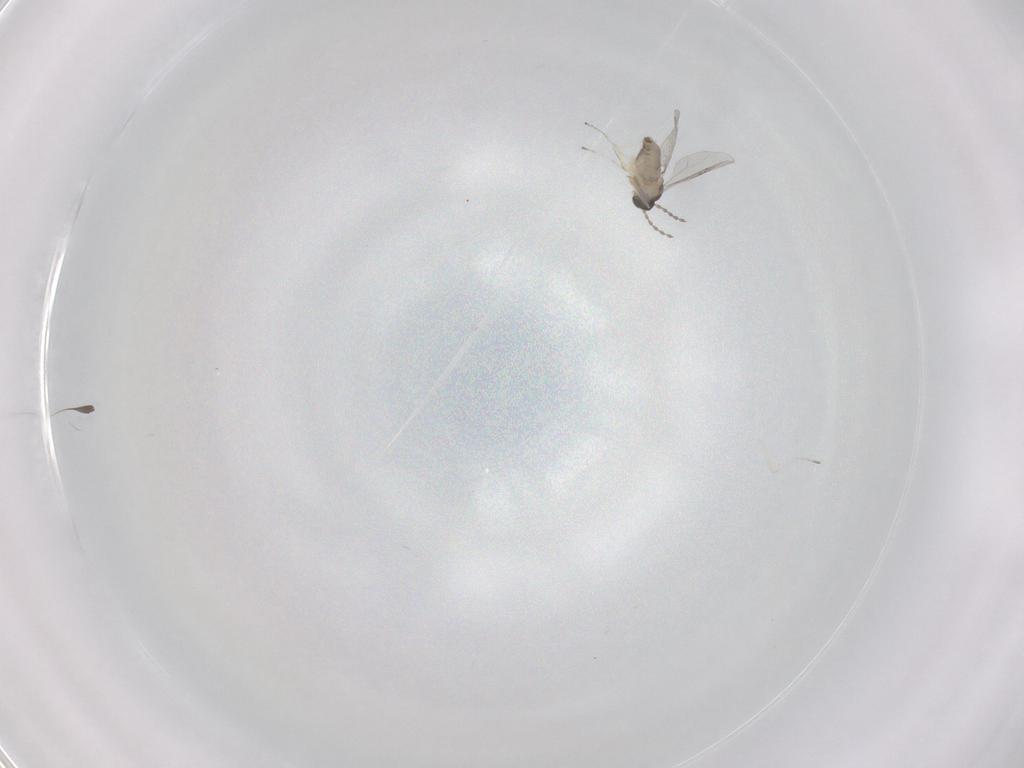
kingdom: Animalia
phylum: Arthropoda
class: Insecta
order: Diptera
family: Cecidomyiidae
